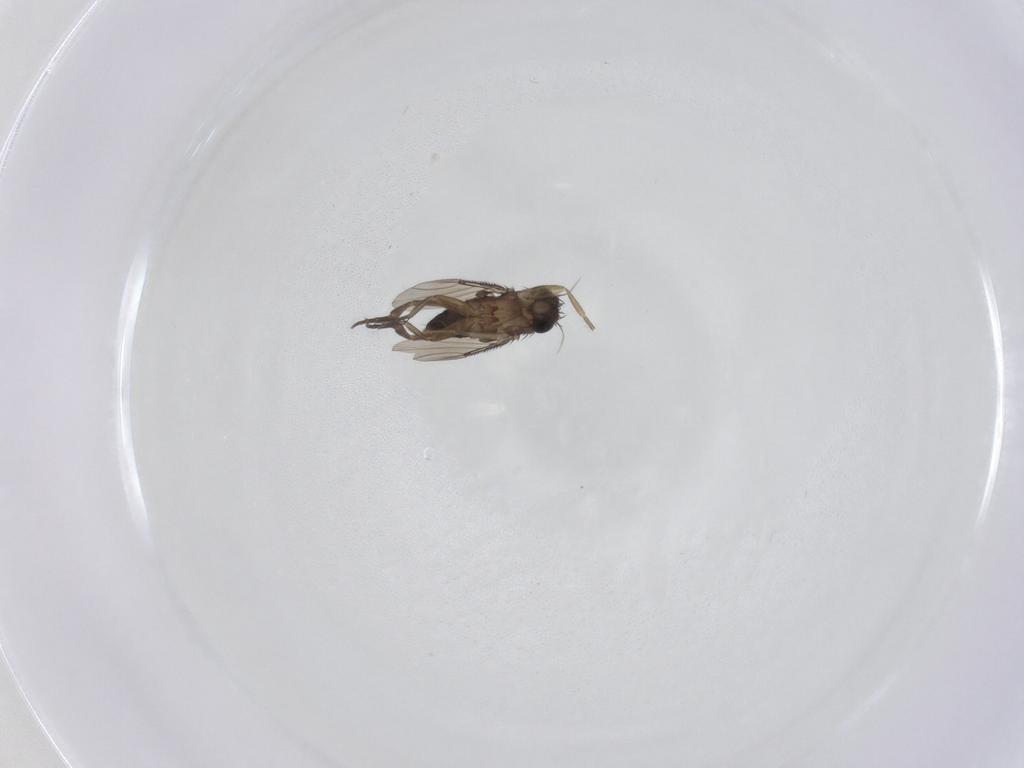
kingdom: Animalia
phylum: Arthropoda
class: Insecta
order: Diptera
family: Phoridae
